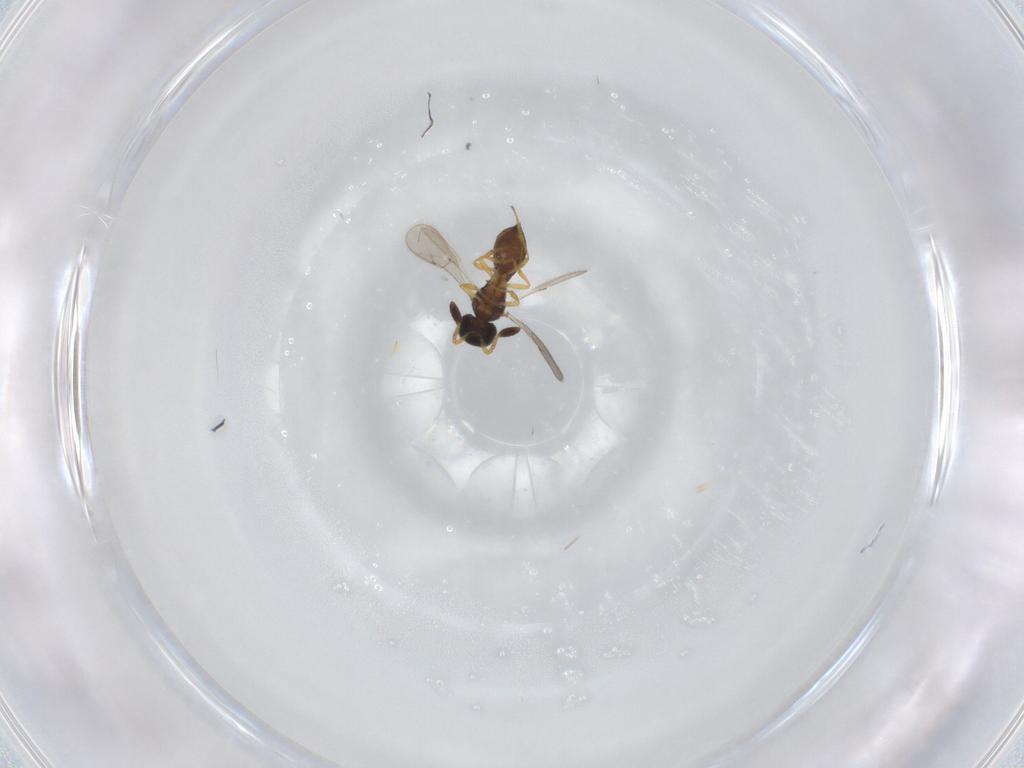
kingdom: Animalia
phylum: Arthropoda
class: Insecta
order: Hymenoptera
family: Scelionidae
